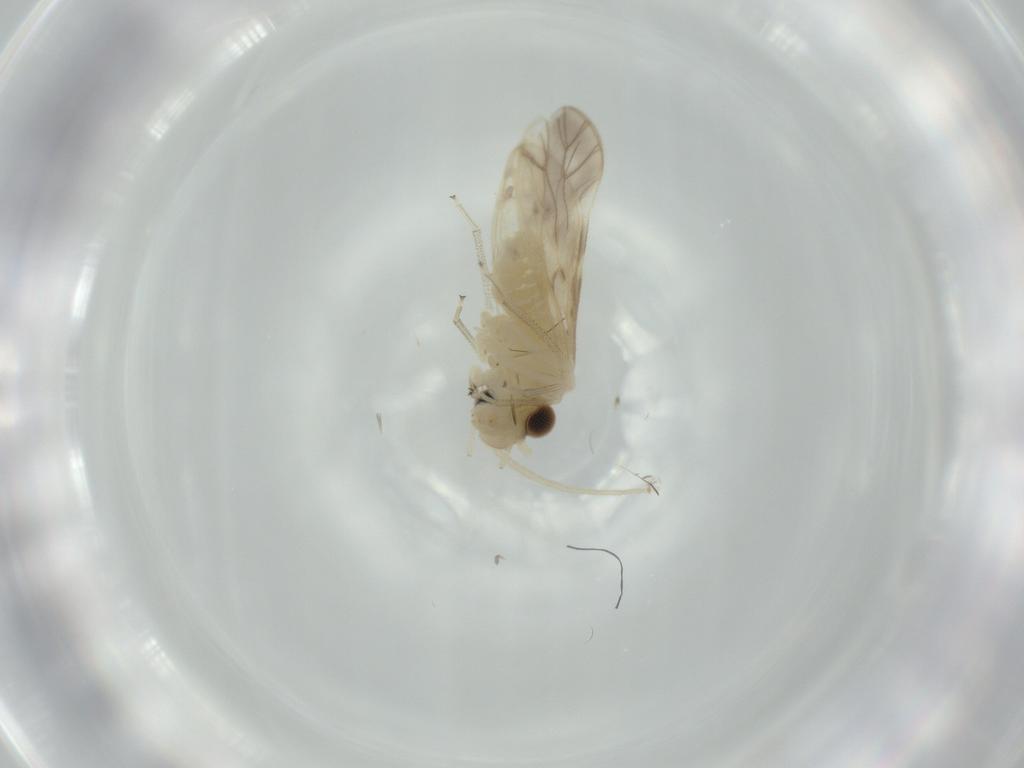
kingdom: Animalia
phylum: Arthropoda
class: Insecta
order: Psocodea
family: Caeciliusidae
